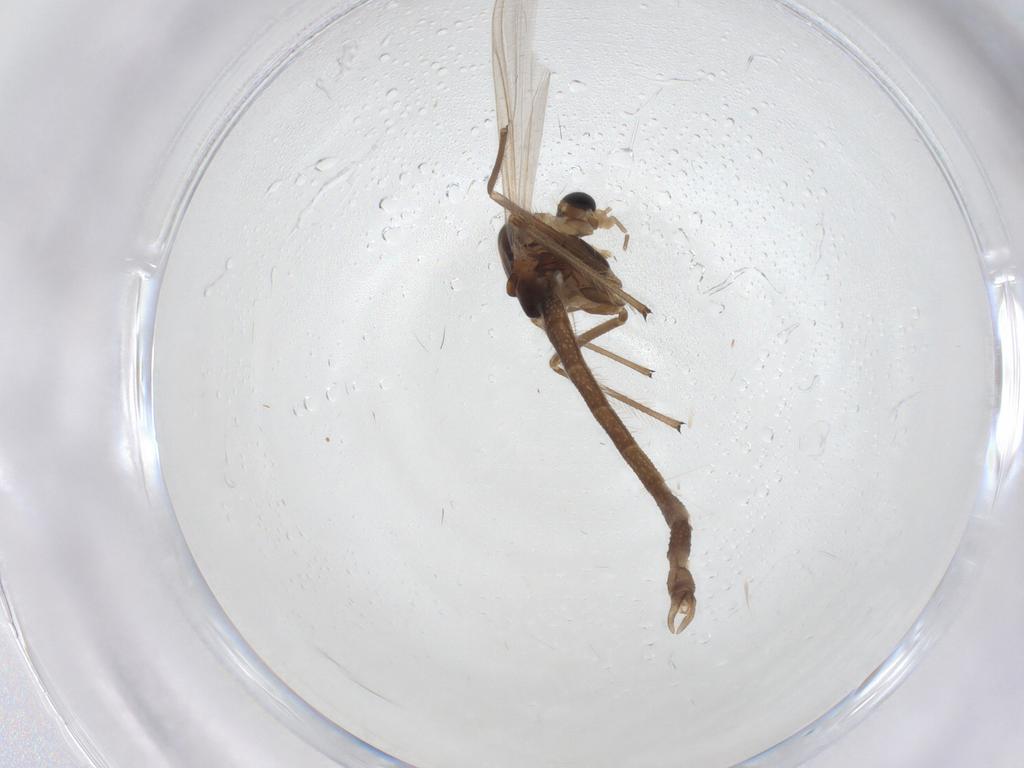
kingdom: Animalia
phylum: Arthropoda
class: Insecta
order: Diptera
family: Chironomidae
